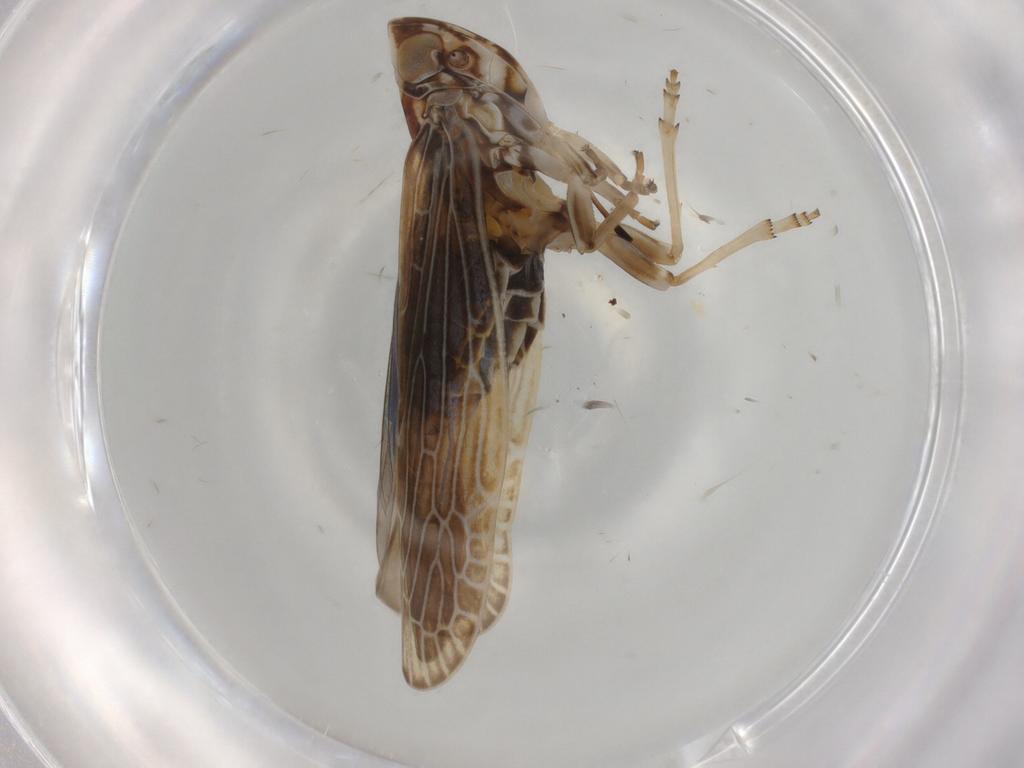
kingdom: Animalia
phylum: Arthropoda
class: Insecta
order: Hemiptera
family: Achilidae
